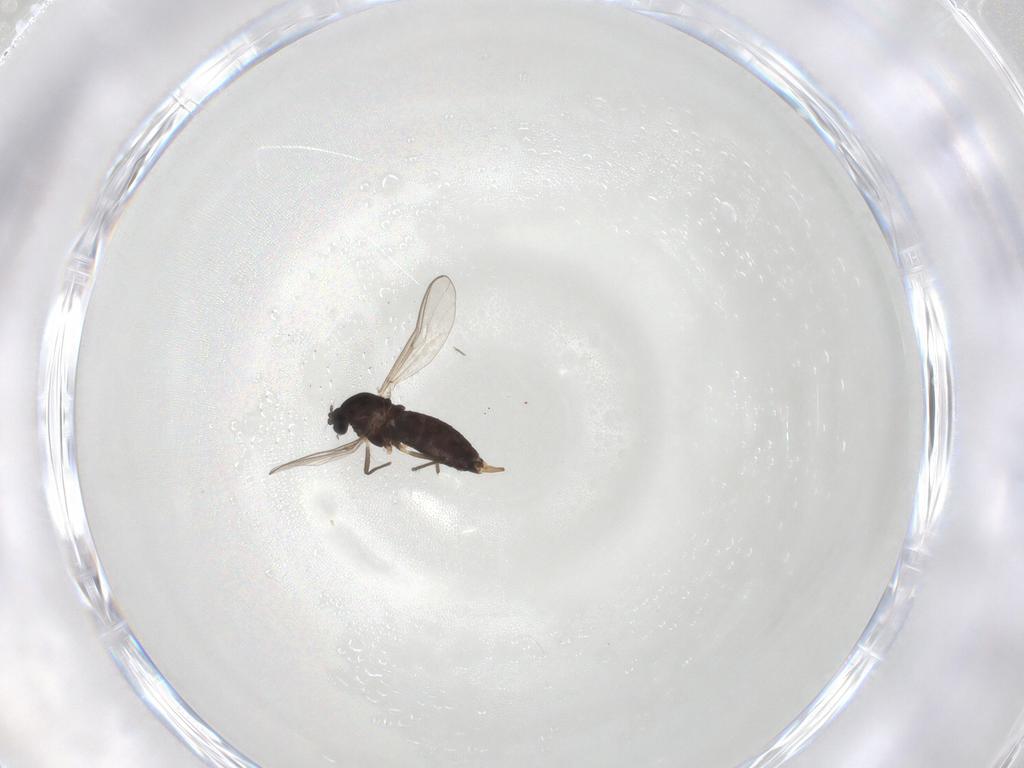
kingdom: Animalia
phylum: Arthropoda
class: Insecta
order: Diptera
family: Chironomidae
